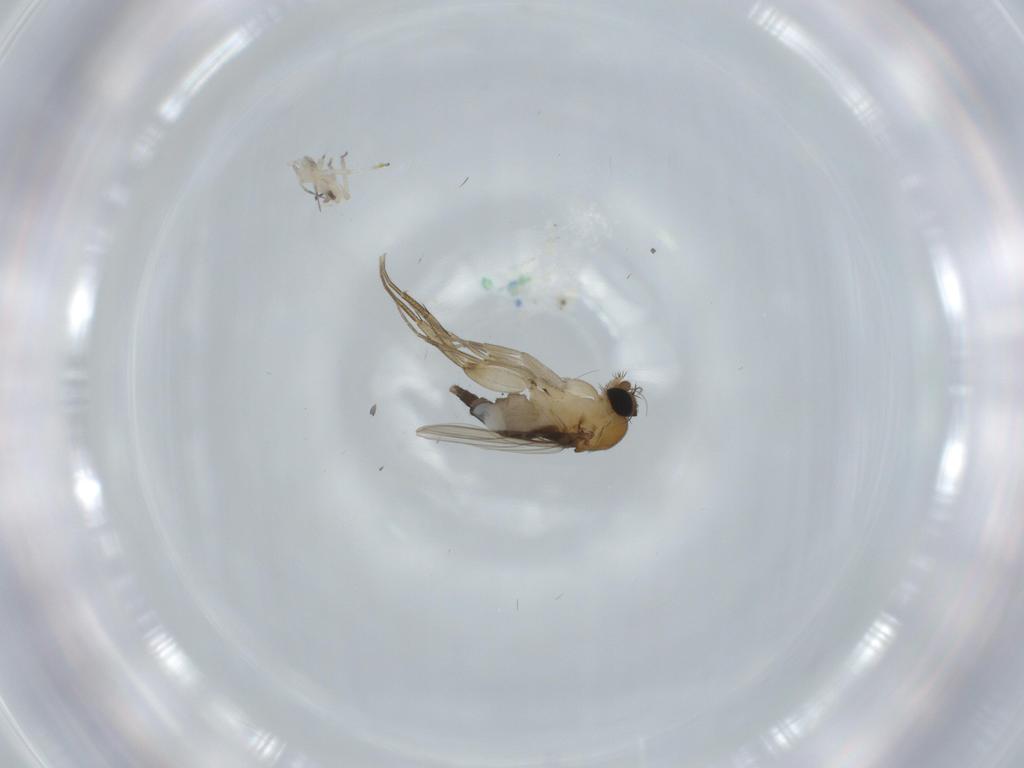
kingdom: Animalia
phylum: Arthropoda
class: Insecta
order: Diptera
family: Phoridae
